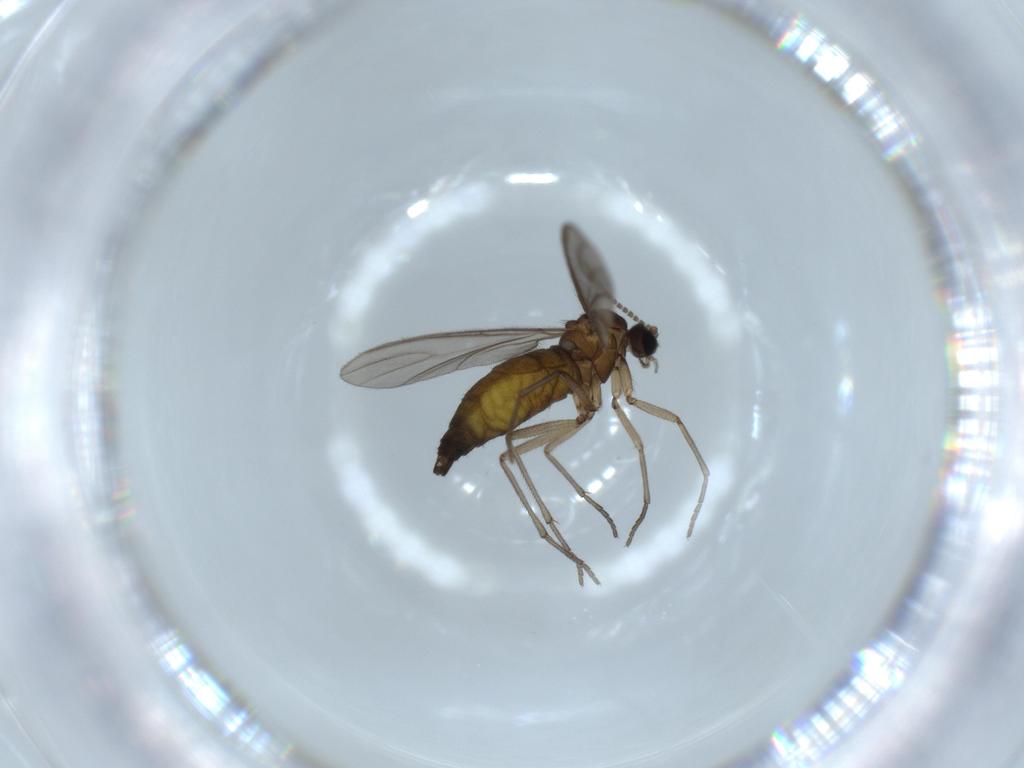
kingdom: Animalia
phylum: Arthropoda
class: Insecta
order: Diptera
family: Sciaridae
